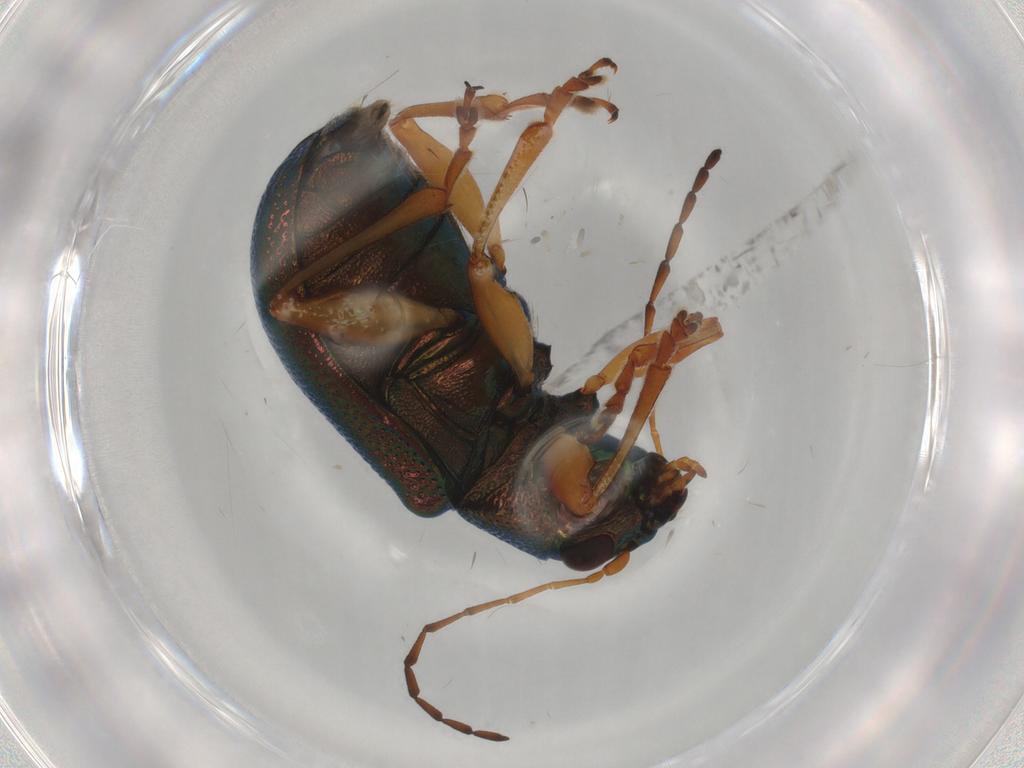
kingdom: Animalia
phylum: Arthropoda
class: Insecta
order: Coleoptera
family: Chrysomelidae
